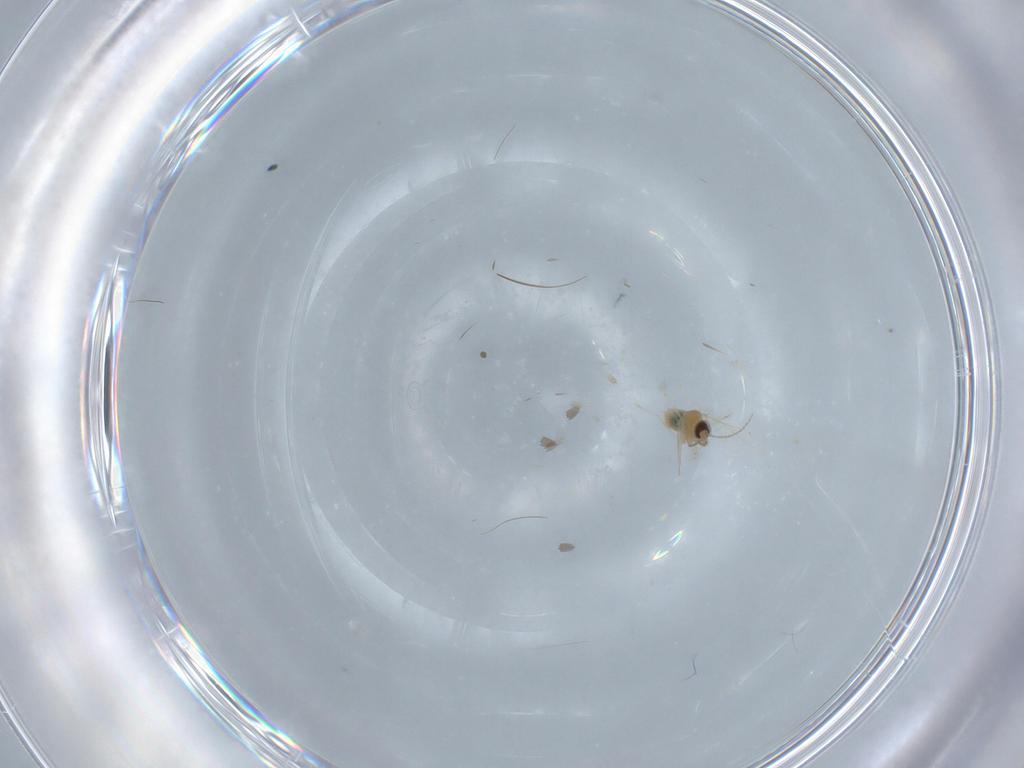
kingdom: Animalia
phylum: Arthropoda
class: Insecta
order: Diptera
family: Cecidomyiidae
